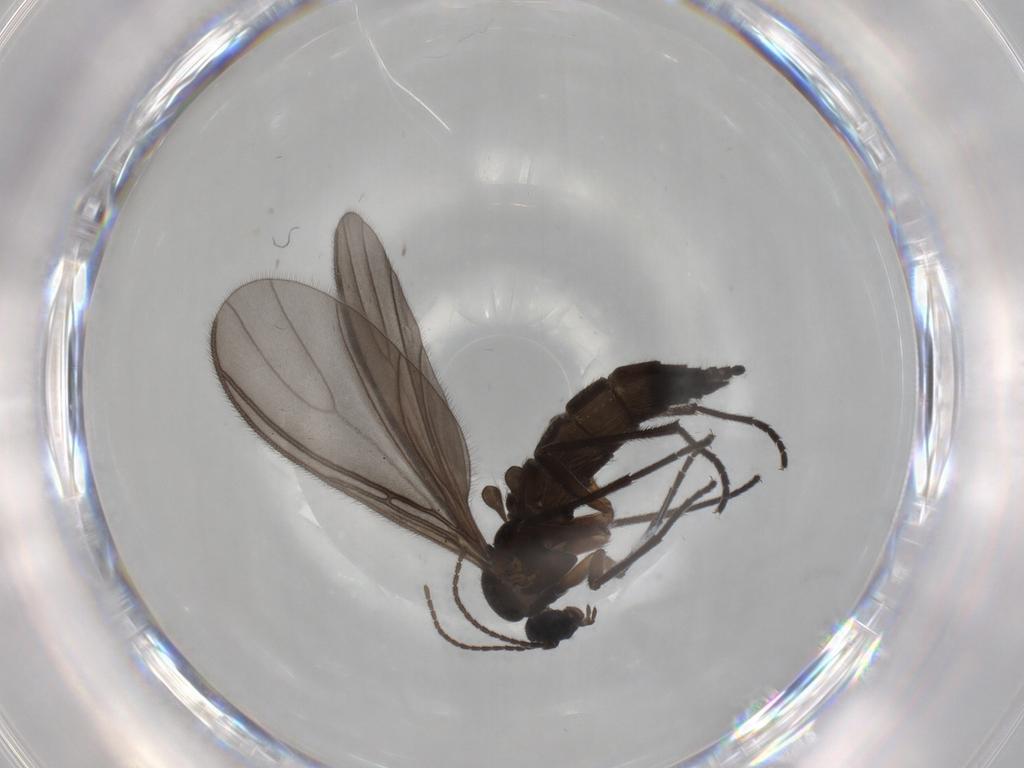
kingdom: Animalia
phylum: Arthropoda
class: Insecta
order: Diptera
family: Sciaridae
